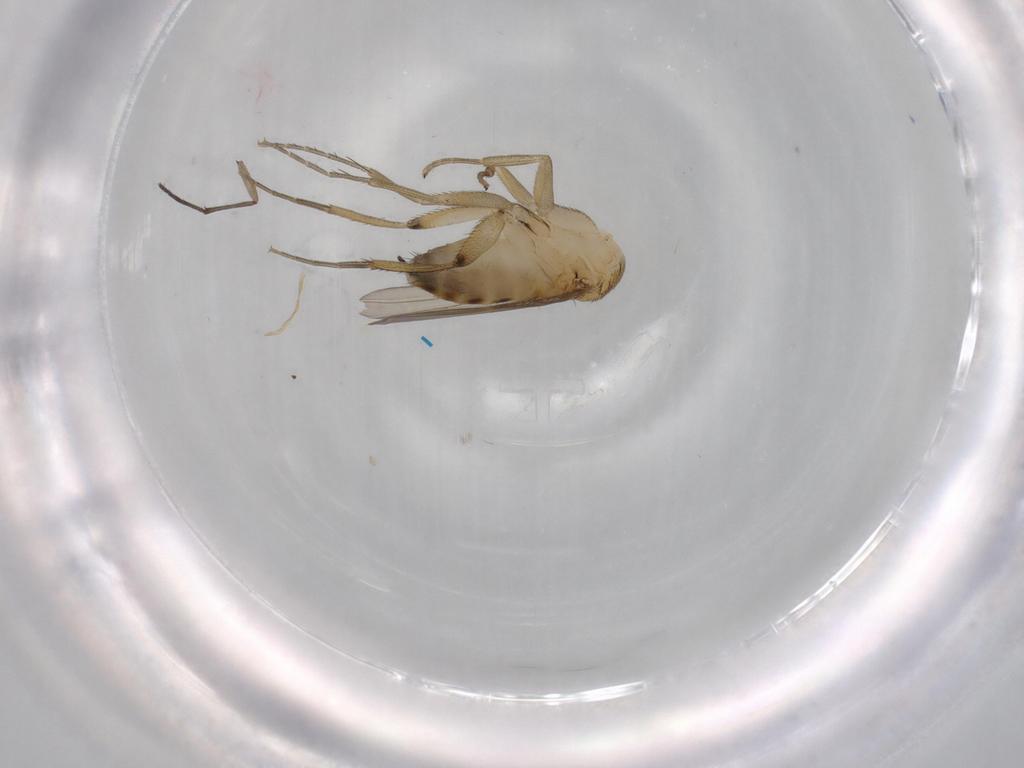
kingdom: Animalia
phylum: Arthropoda
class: Insecta
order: Diptera
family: Phoridae
